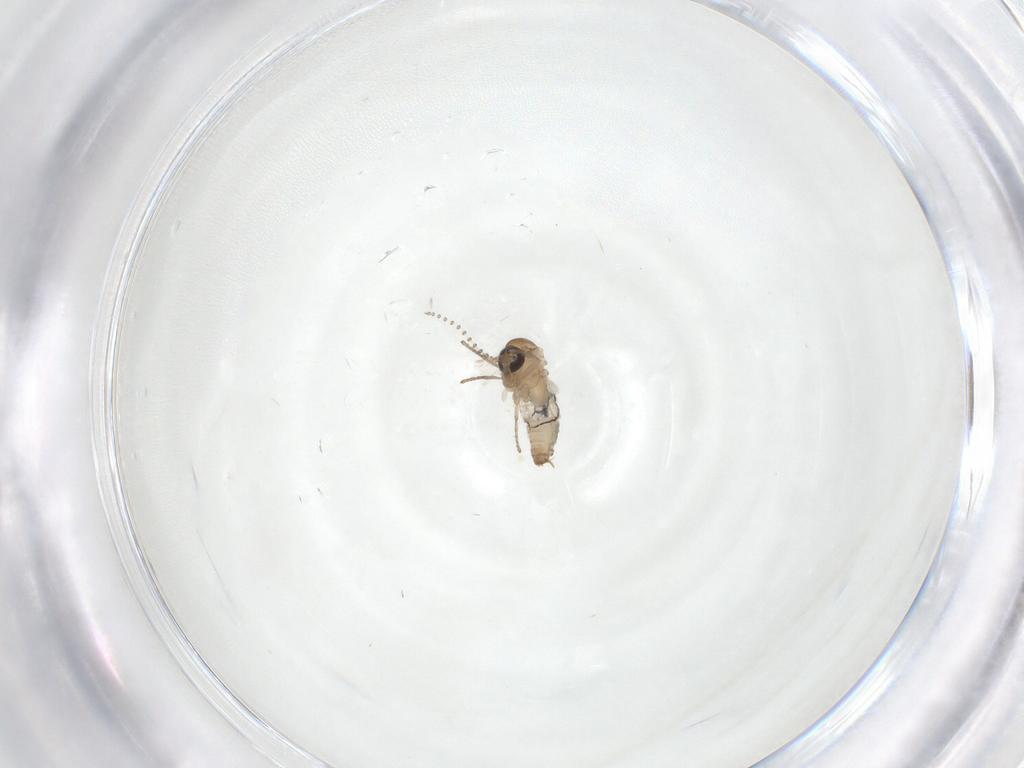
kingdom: Animalia
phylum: Arthropoda
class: Insecta
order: Diptera
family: Psychodidae
